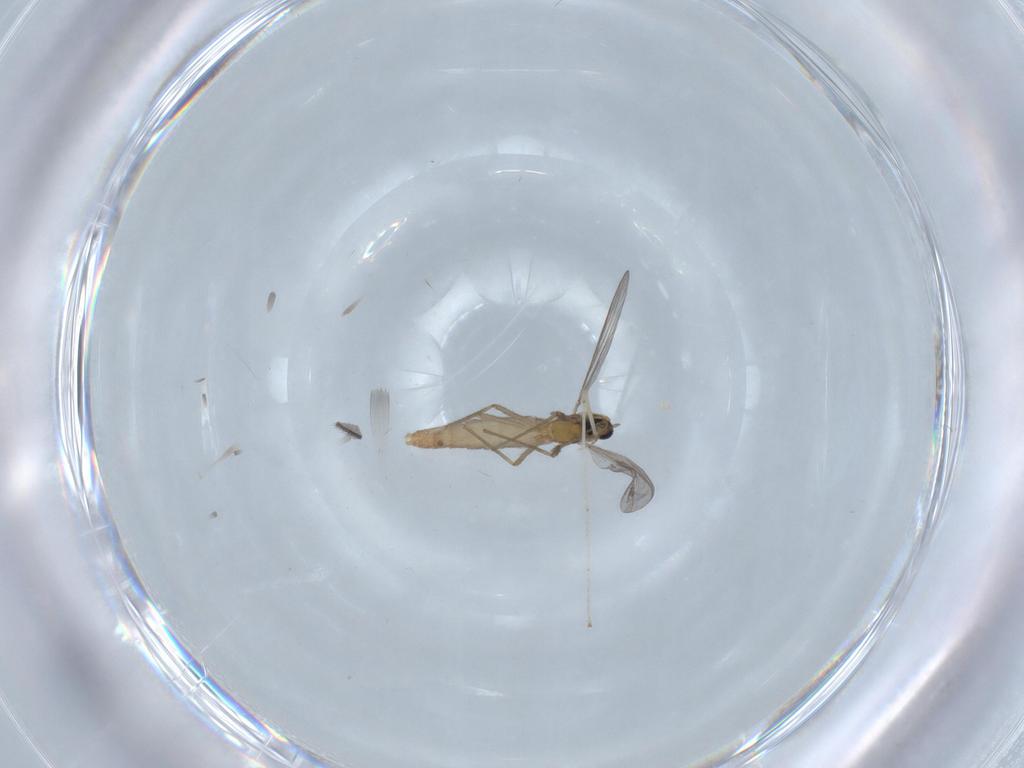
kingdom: Animalia
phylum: Arthropoda
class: Insecta
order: Diptera
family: Chironomidae
